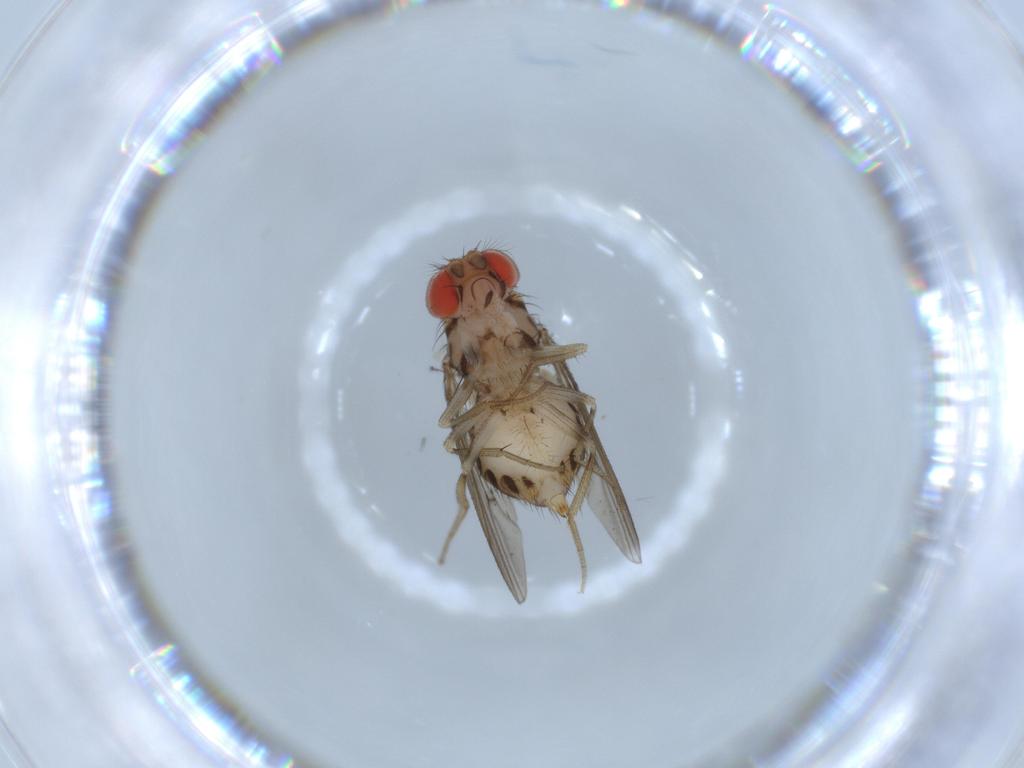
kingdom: Animalia
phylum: Arthropoda
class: Insecta
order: Diptera
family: Drosophilidae
